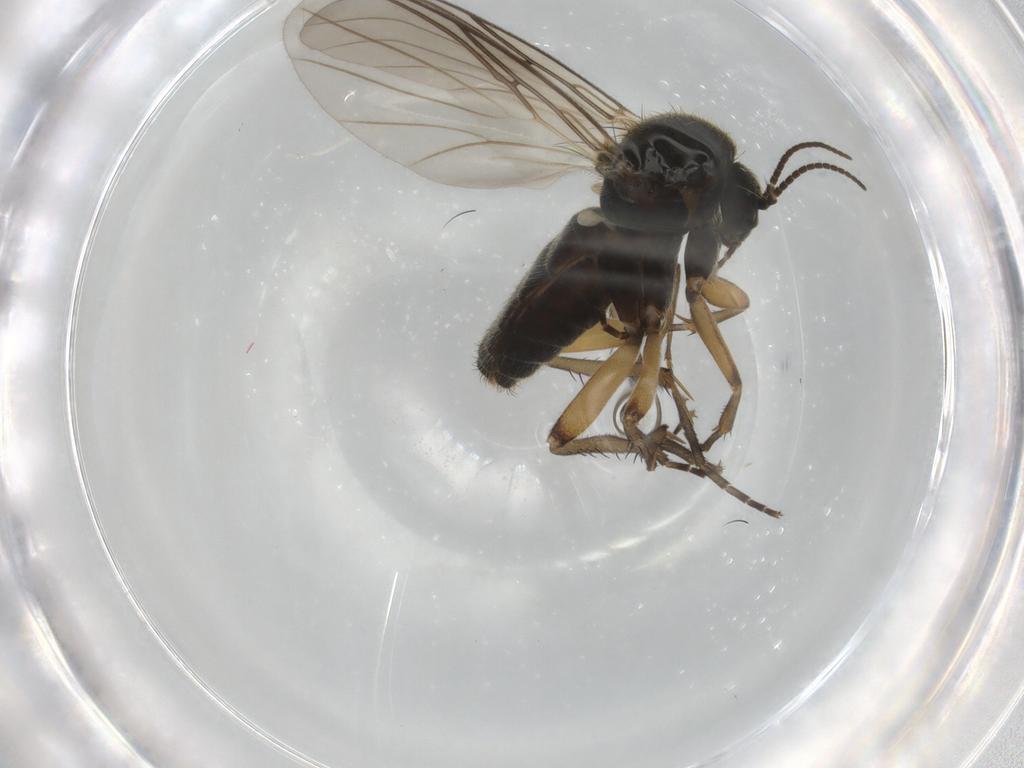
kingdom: Animalia
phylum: Arthropoda
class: Insecta
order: Diptera
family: Mycetophilidae
